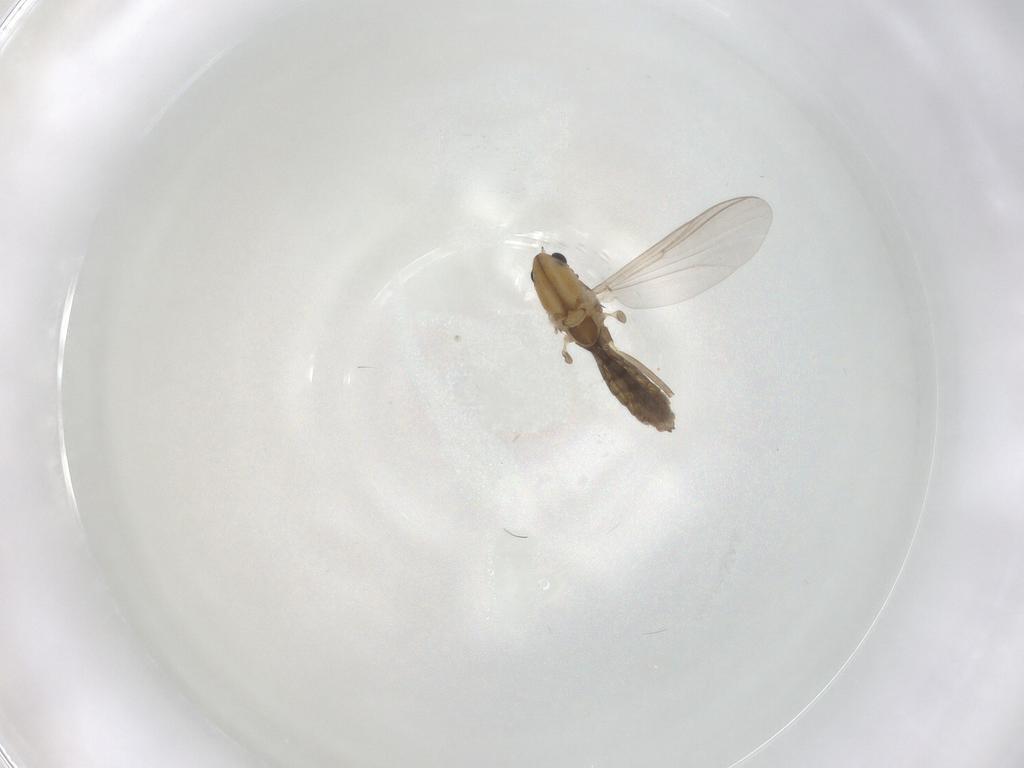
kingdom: Animalia
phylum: Arthropoda
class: Insecta
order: Diptera
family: Chironomidae
